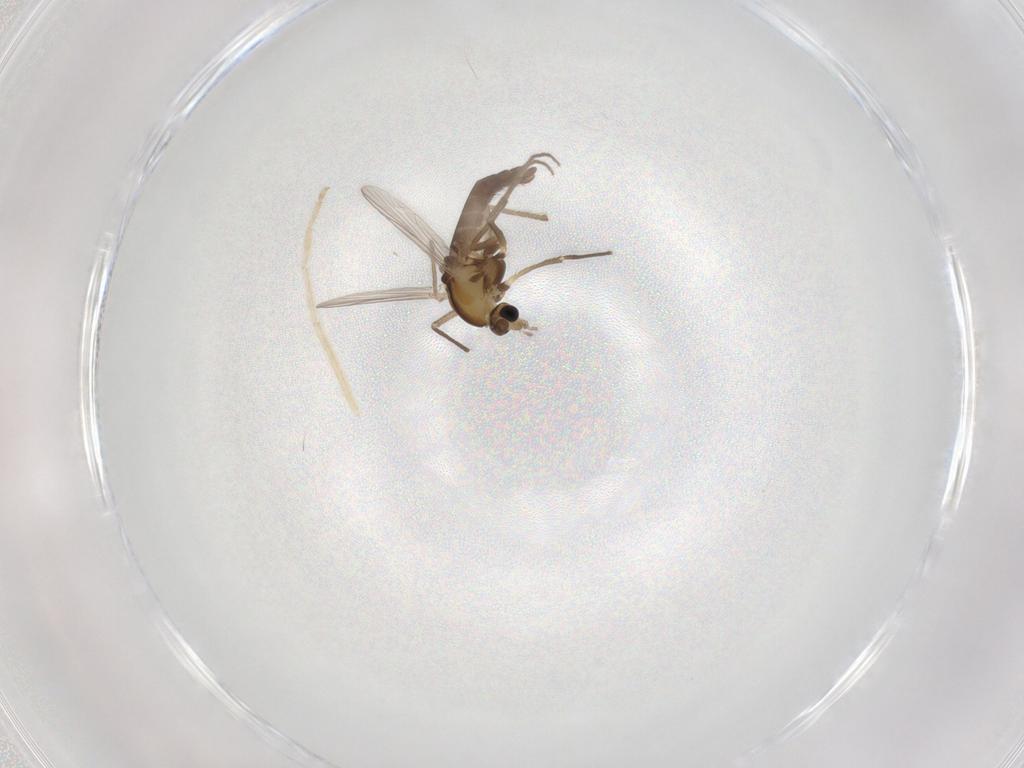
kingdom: Animalia
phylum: Arthropoda
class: Insecta
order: Diptera
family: Chironomidae
